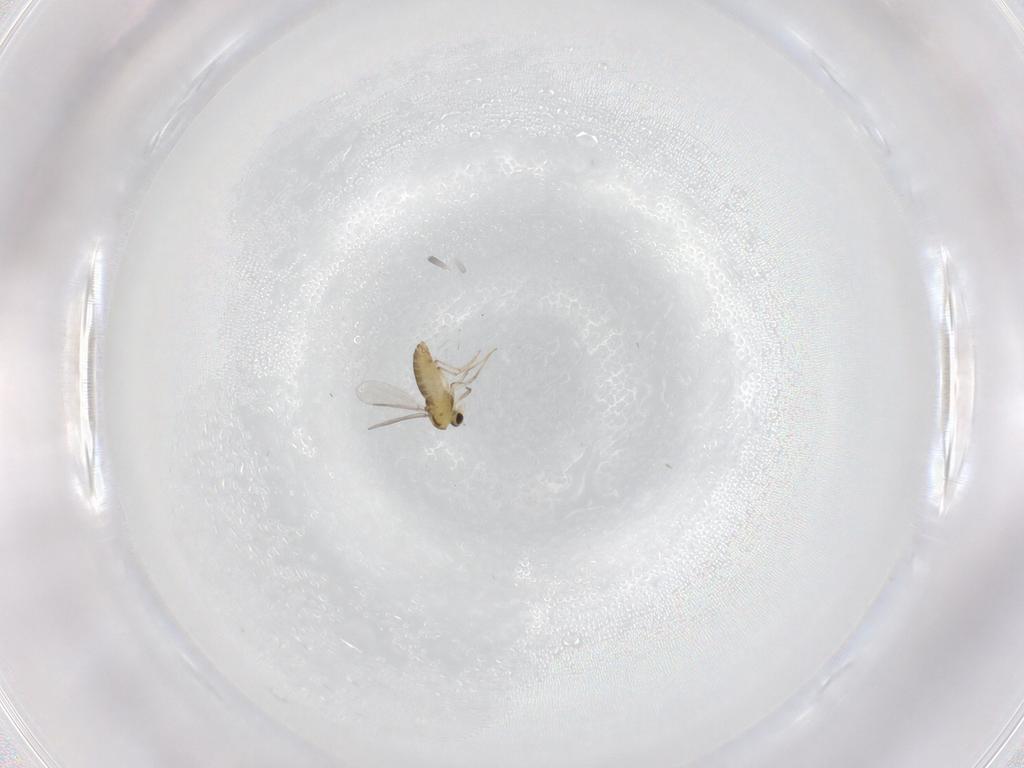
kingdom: Animalia
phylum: Arthropoda
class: Insecta
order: Diptera
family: Chironomidae
